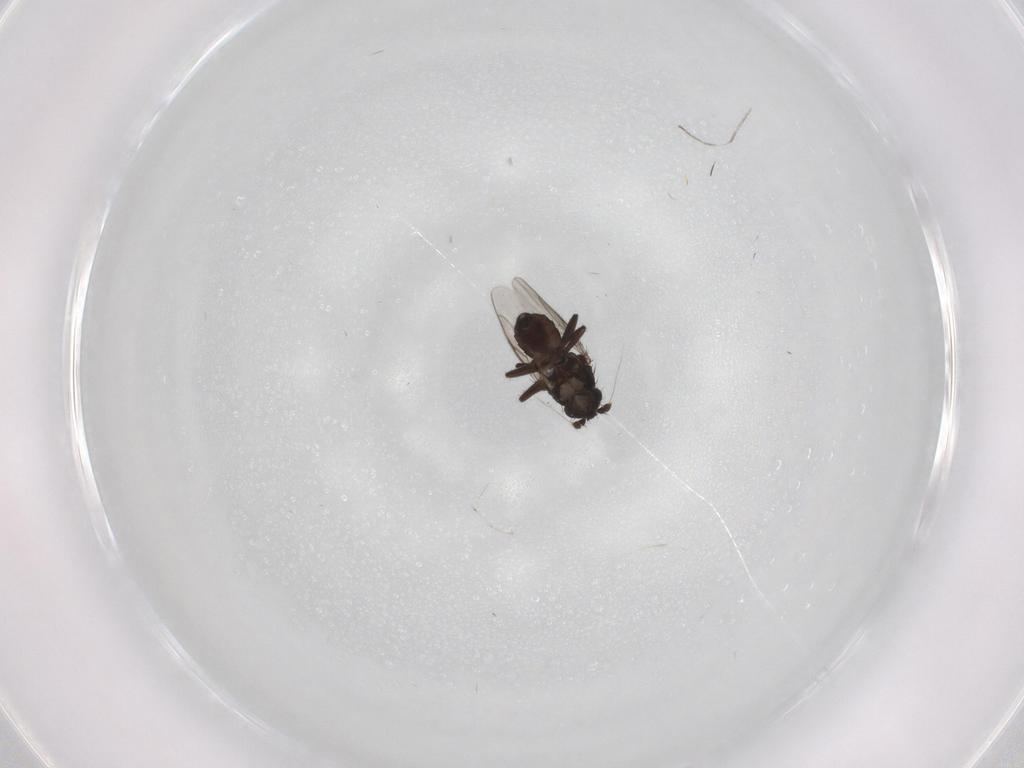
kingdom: Animalia
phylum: Arthropoda
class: Insecta
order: Diptera
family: Cecidomyiidae
